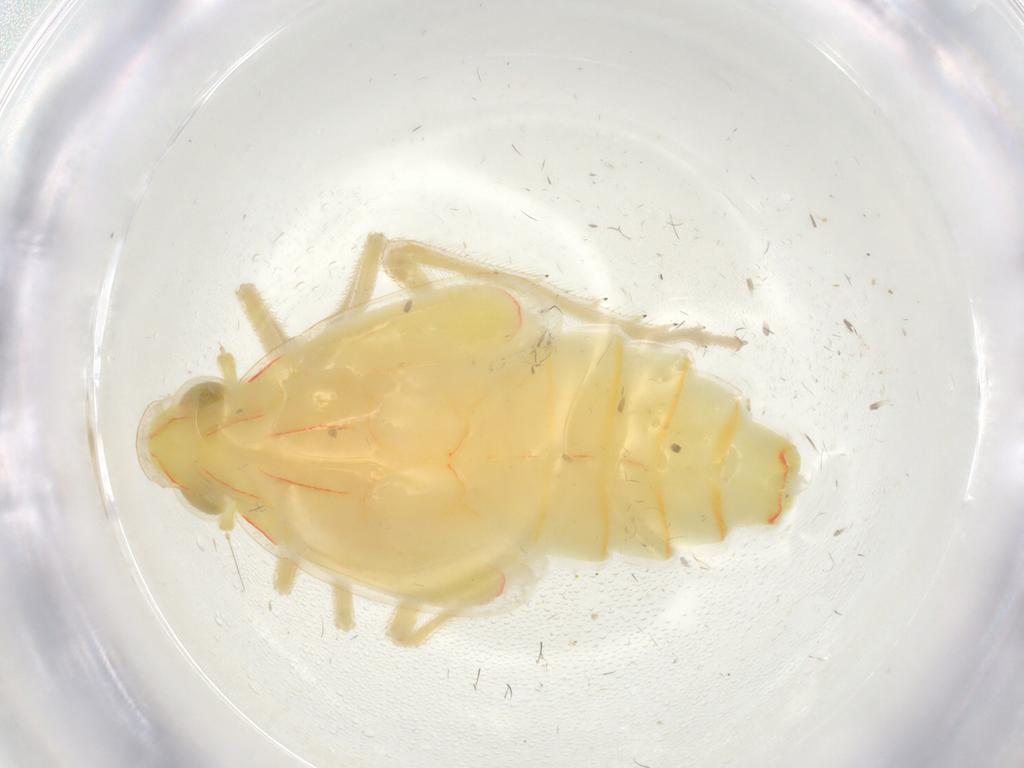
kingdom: Animalia
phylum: Arthropoda
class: Insecta
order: Hemiptera
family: Fulgoroidea_incertae_sedis
